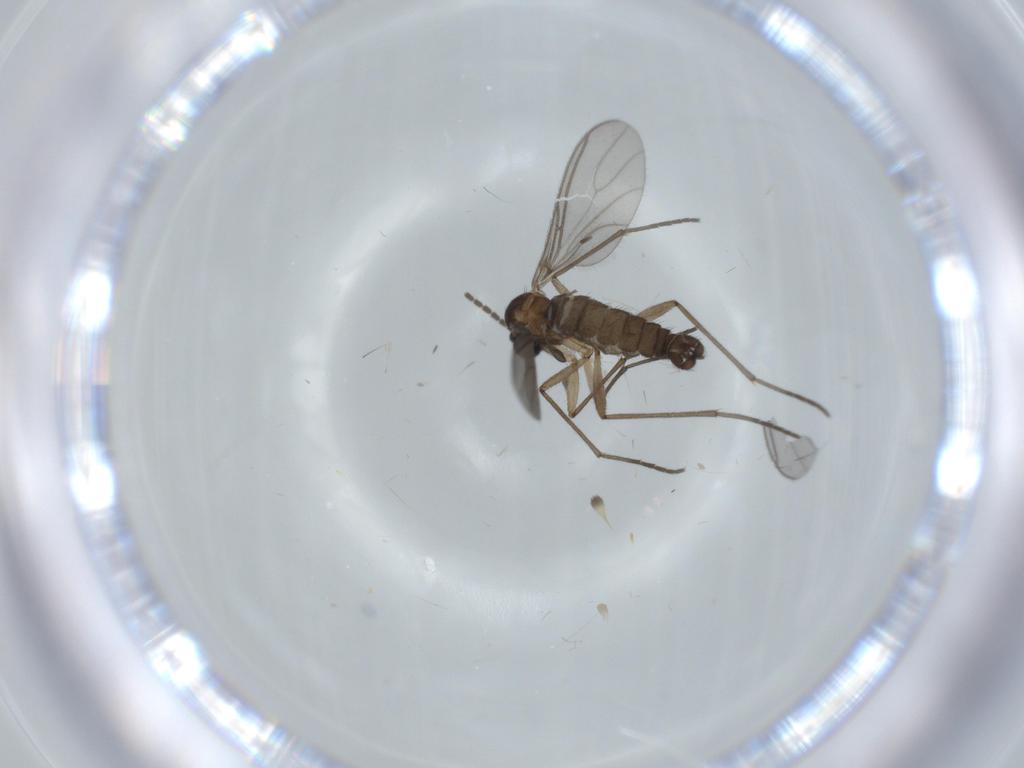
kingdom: Animalia
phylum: Arthropoda
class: Insecta
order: Diptera
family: Sciaridae
